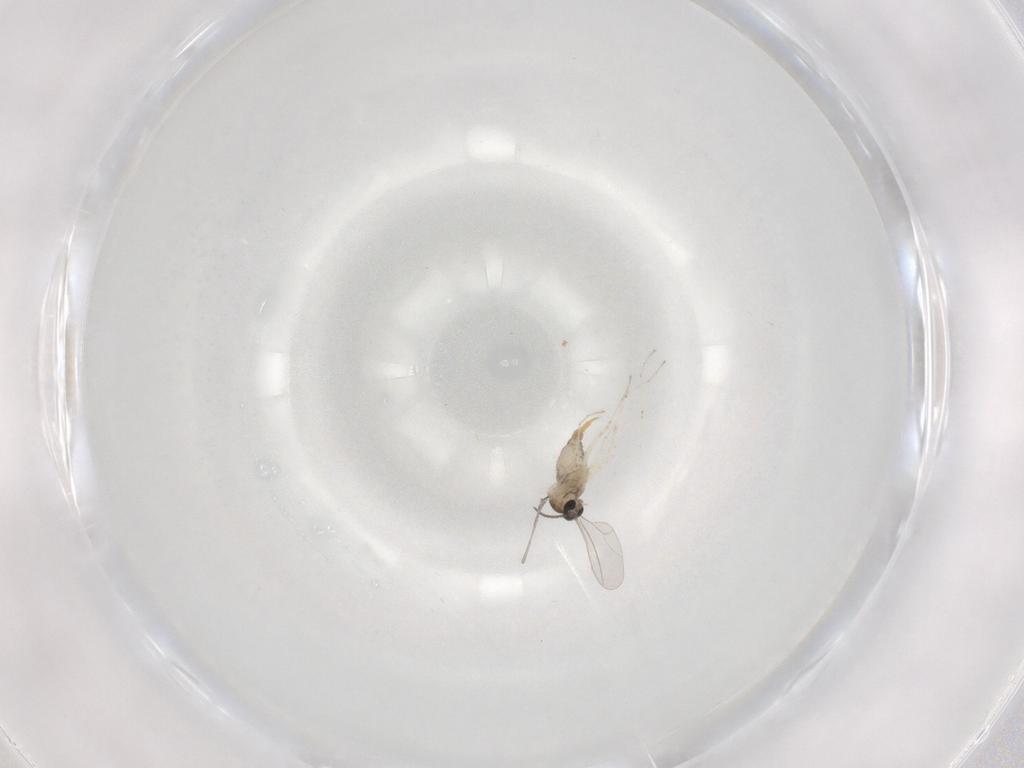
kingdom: Animalia
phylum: Arthropoda
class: Insecta
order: Diptera
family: Cecidomyiidae
